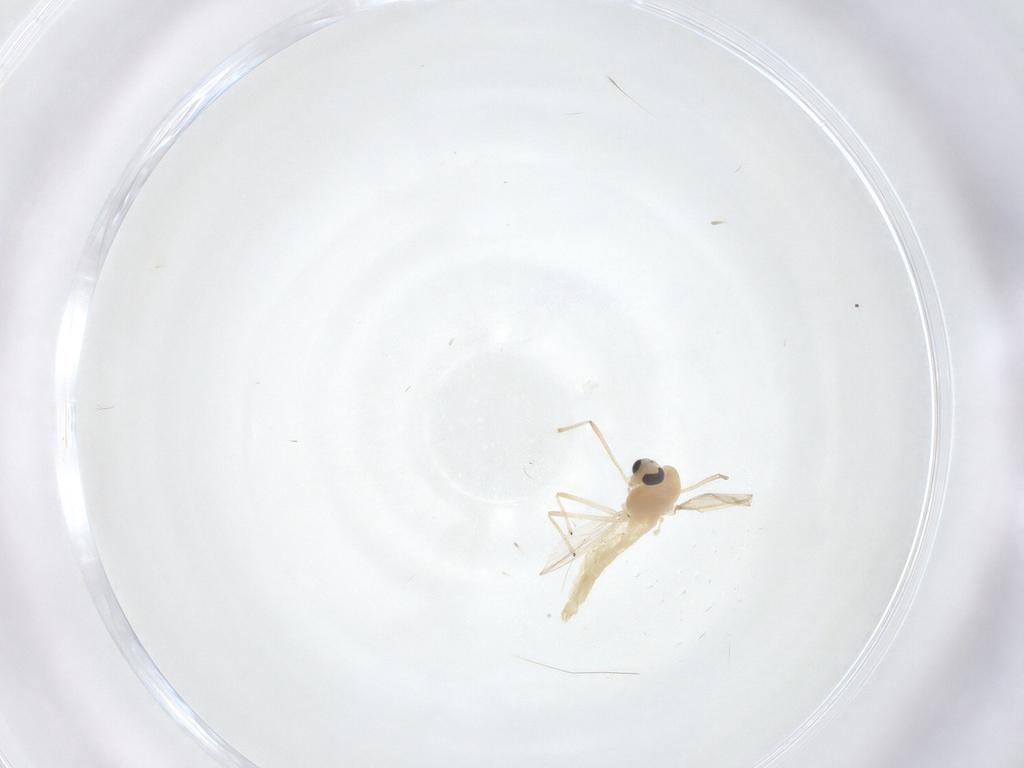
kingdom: Animalia
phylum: Arthropoda
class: Insecta
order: Diptera
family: Chironomidae
